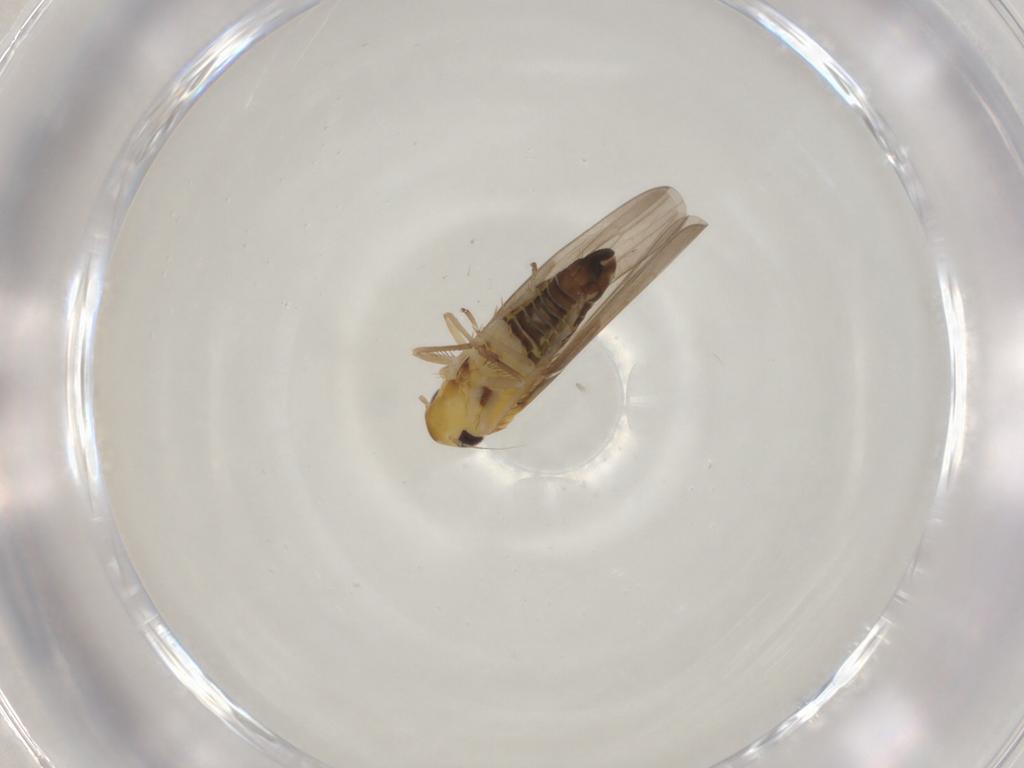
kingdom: Animalia
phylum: Arthropoda
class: Insecta
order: Hemiptera
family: Cicadellidae
